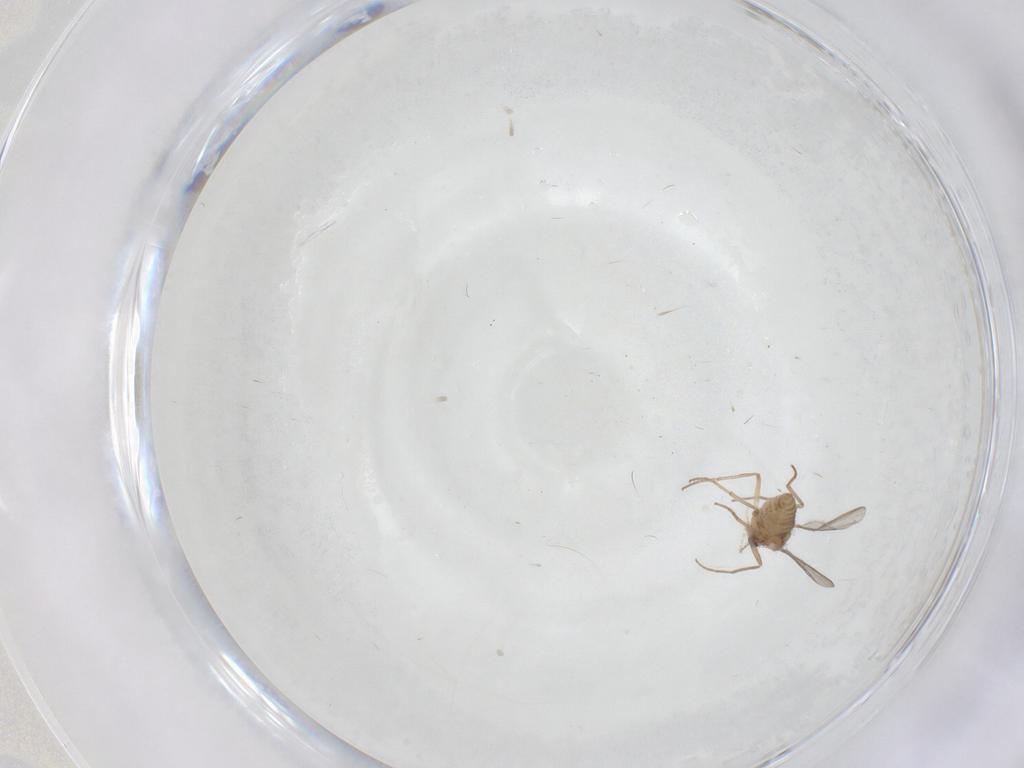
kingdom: Animalia
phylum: Arthropoda
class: Insecta
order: Diptera
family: Chironomidae
